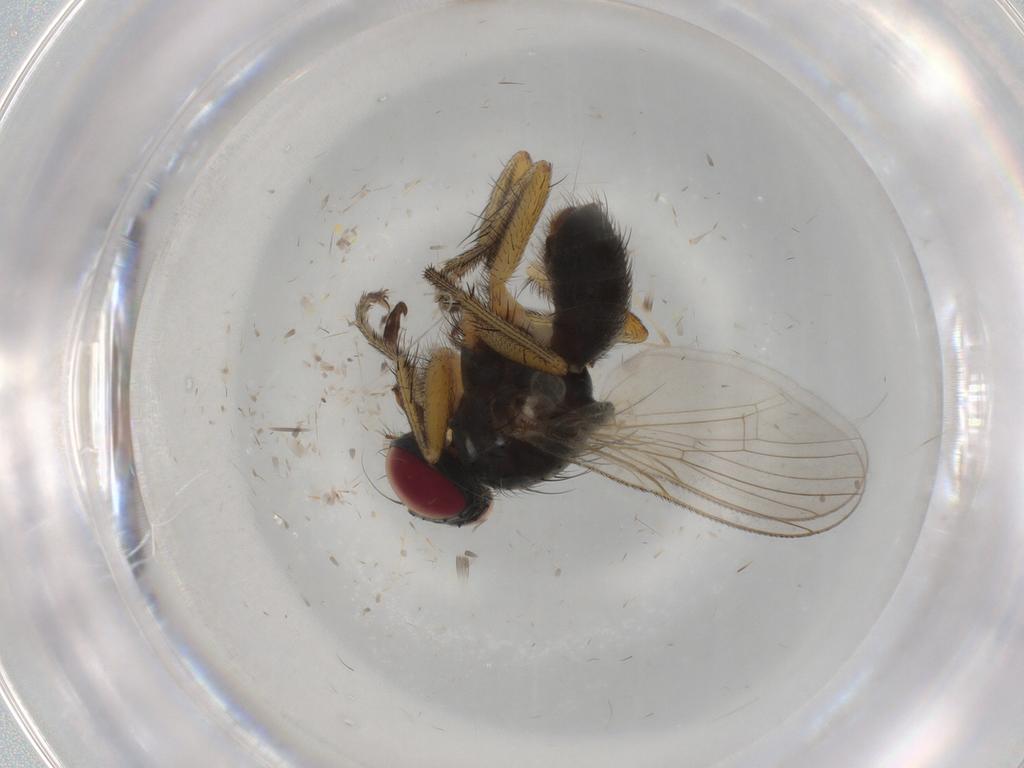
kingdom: Animalia
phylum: Arthropoda
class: Insecta
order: Diptera
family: Muscidae
